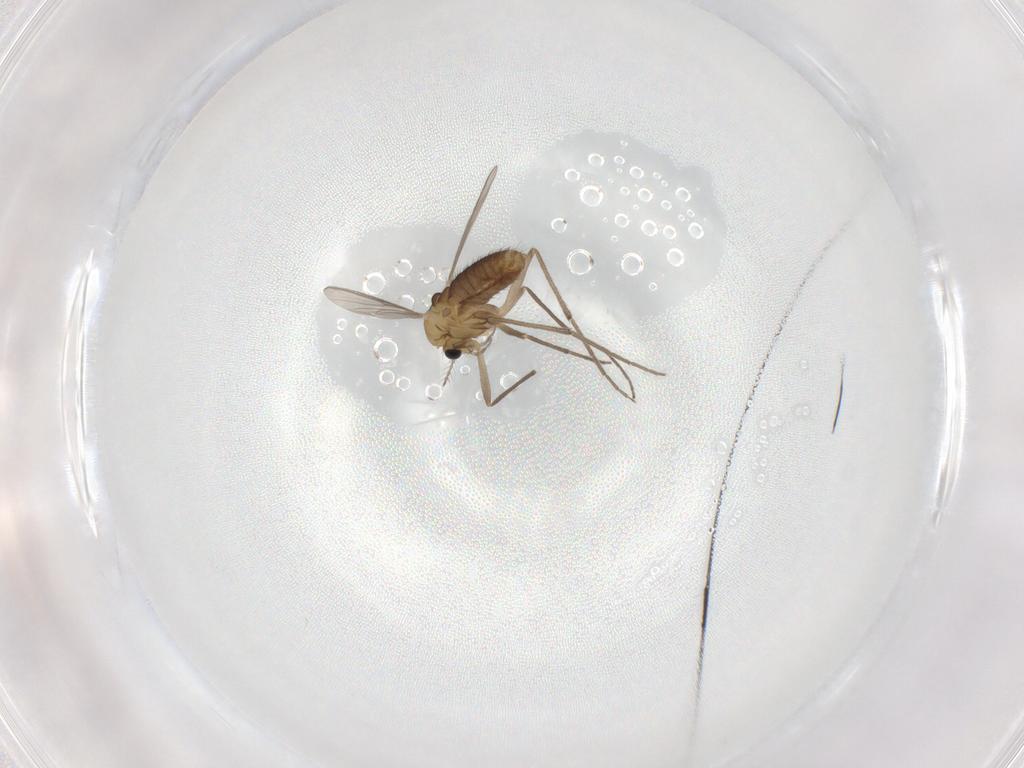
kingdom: Animalia
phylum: Arthropoda
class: Insecta
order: Diptera
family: Chironomidae
